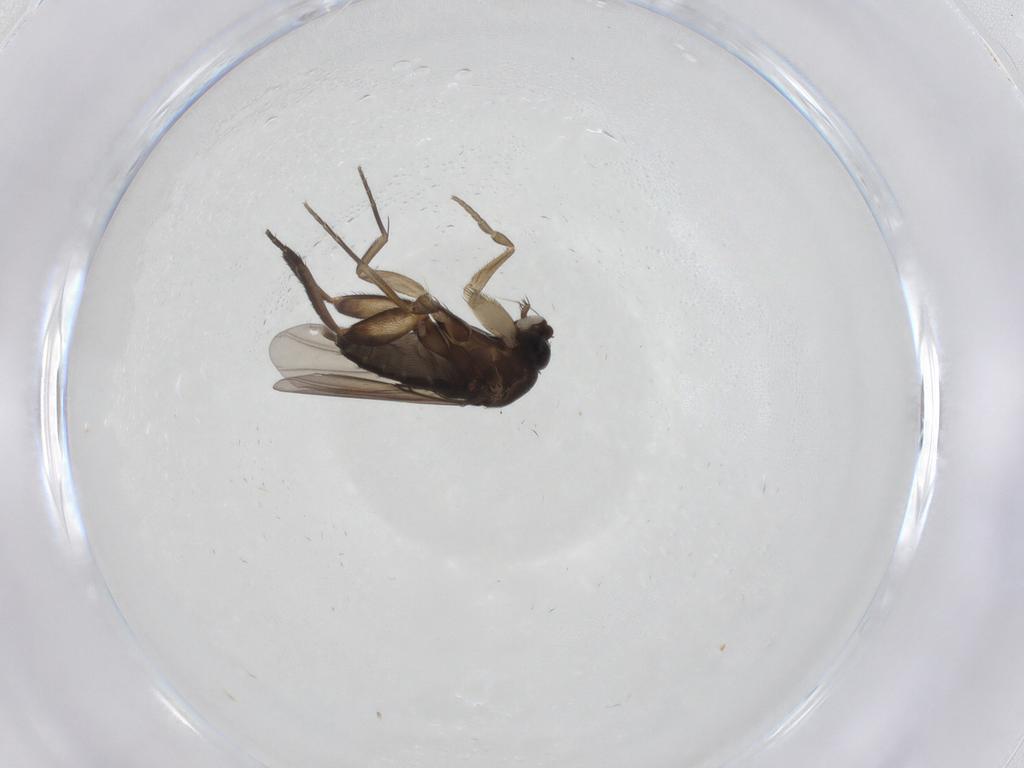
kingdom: Animalia
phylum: Arthropoda
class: Insecta
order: Diptera
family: Phoridae
